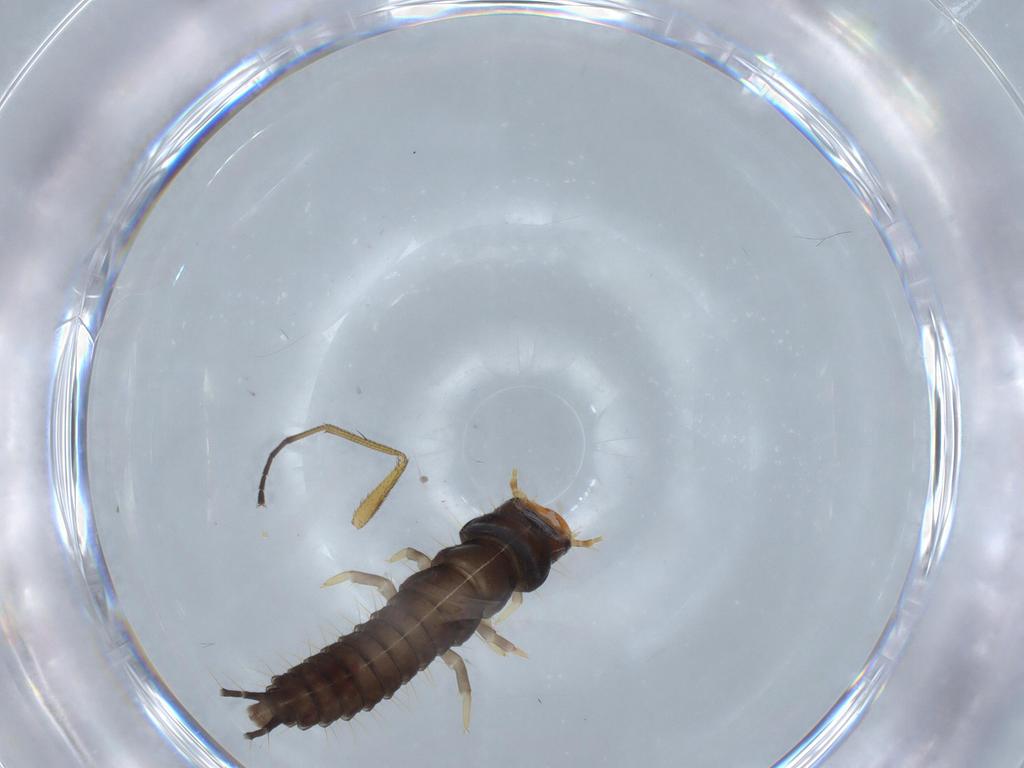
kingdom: Animalia
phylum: Arthropoda
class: Insecta
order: Coleoptera
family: Carabidae
